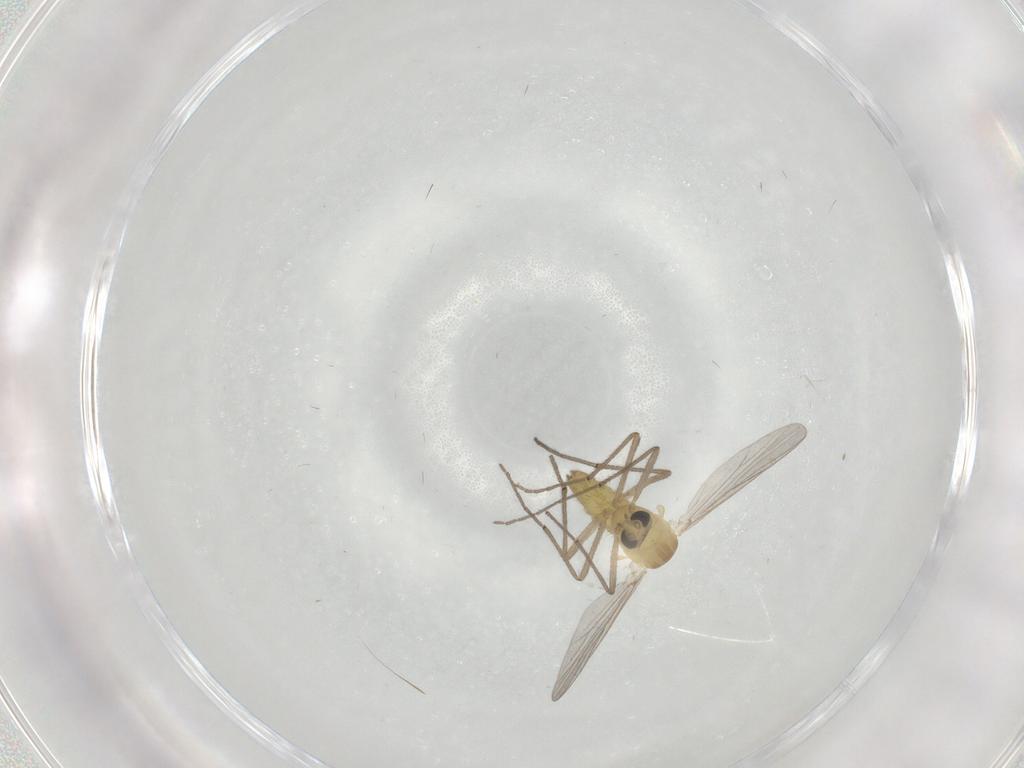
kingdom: Animalia
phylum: Arthropoda
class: Insecta
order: Diptera
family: Chironomidae
